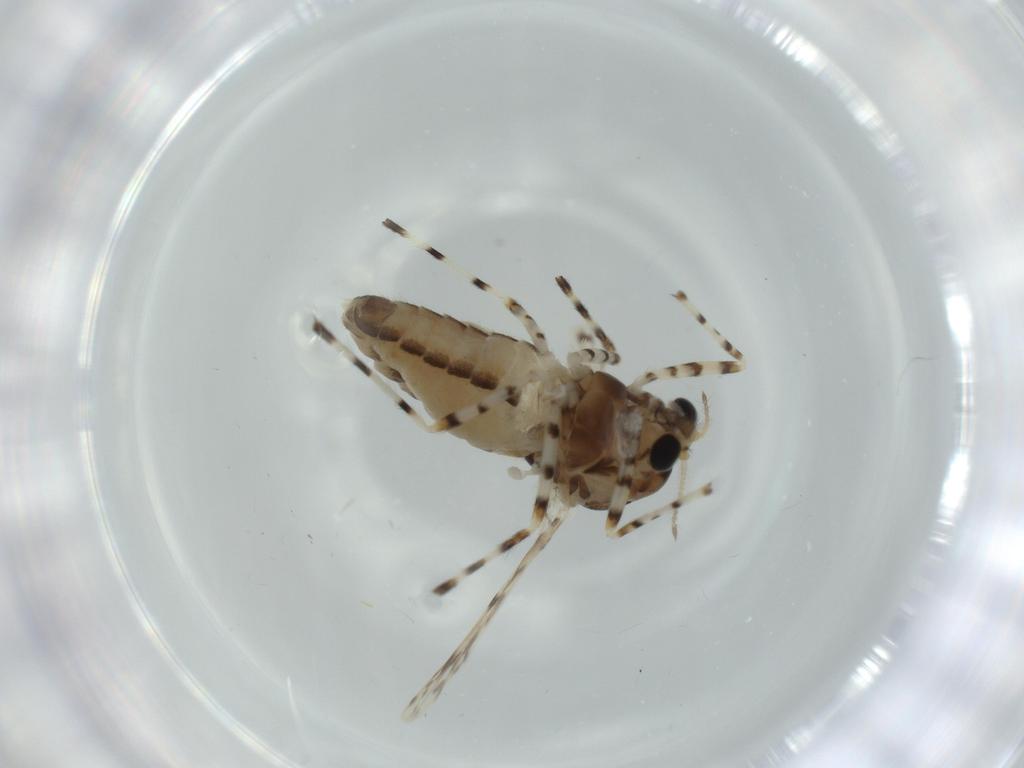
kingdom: Animalia
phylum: Arthropoda
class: Insecta
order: Diptera
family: Chironomidae
